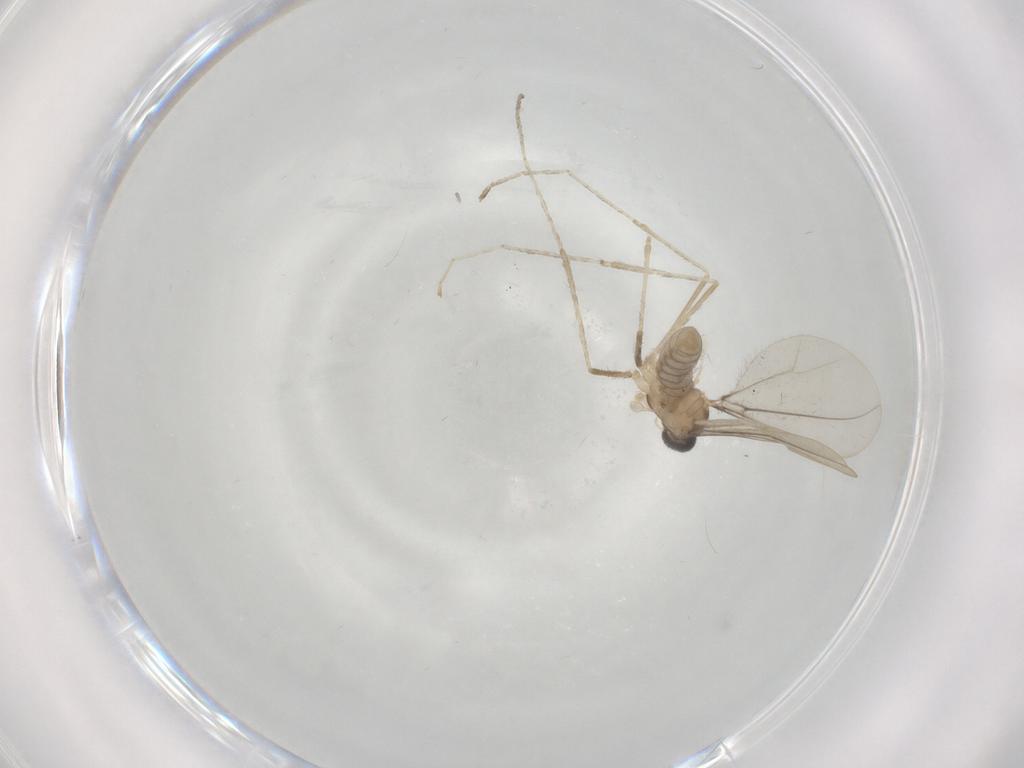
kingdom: Animalia
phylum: Arthropoda
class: Insecta
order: Diptera
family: Cecidomyiidae
